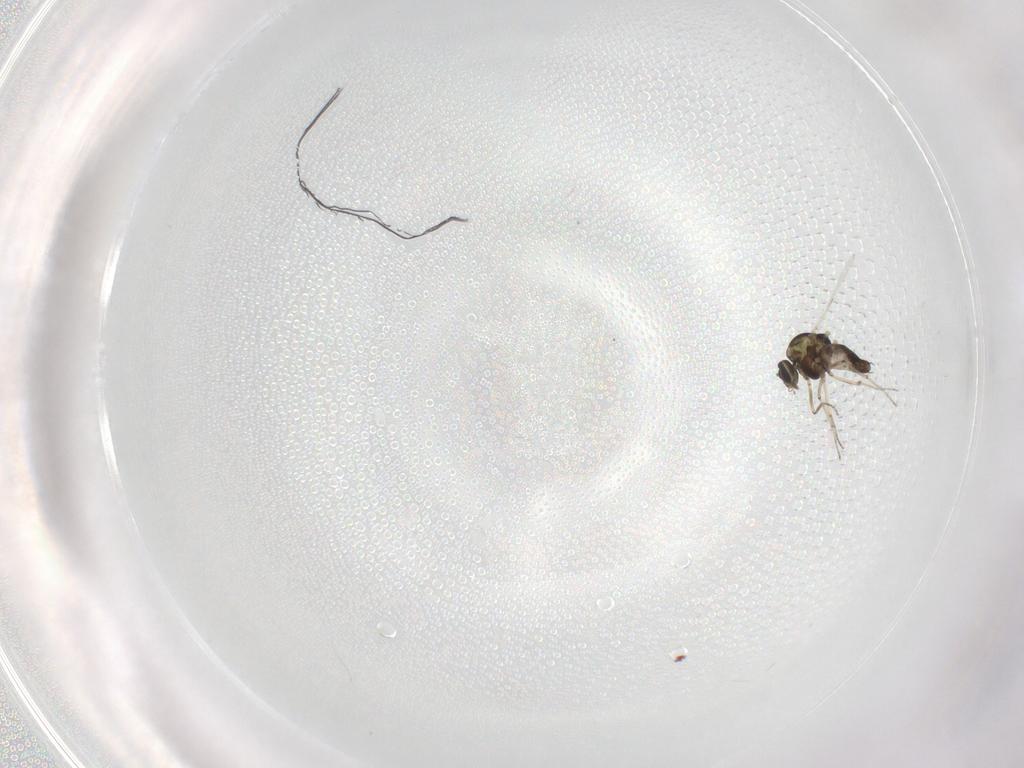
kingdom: Animalia
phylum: Arthropoda
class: Insecta
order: Diptera
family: Ceratopogonidae
